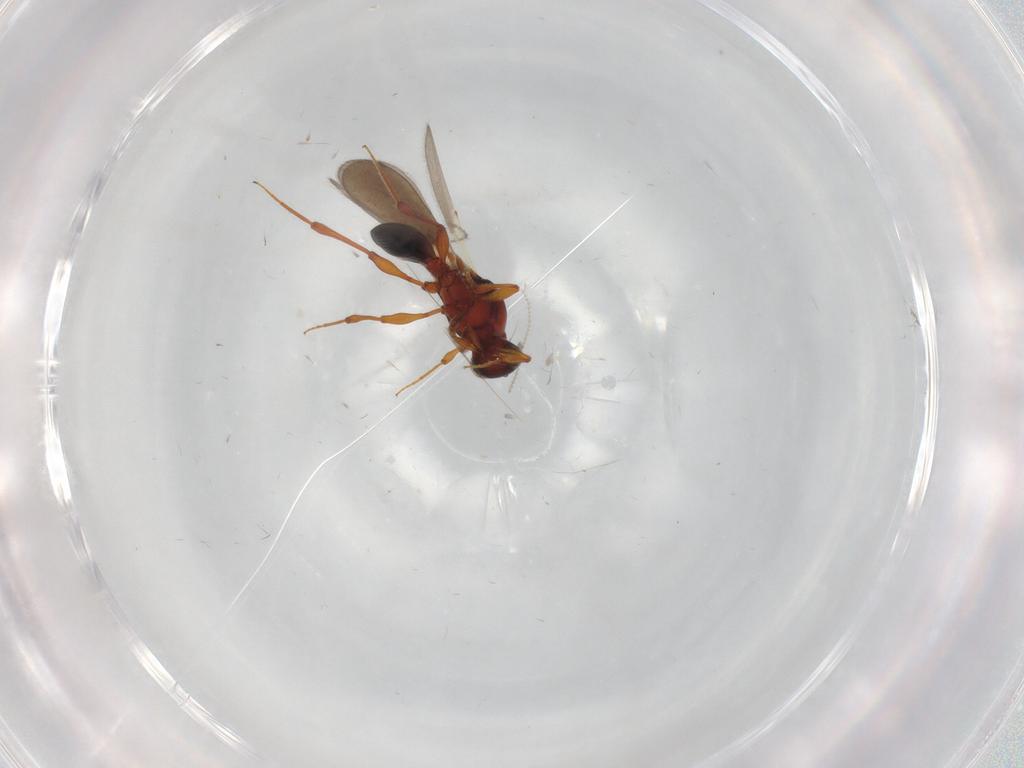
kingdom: Animalia
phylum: Arthropoda
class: Insecta
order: Hymenoptera
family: Platygastridae
